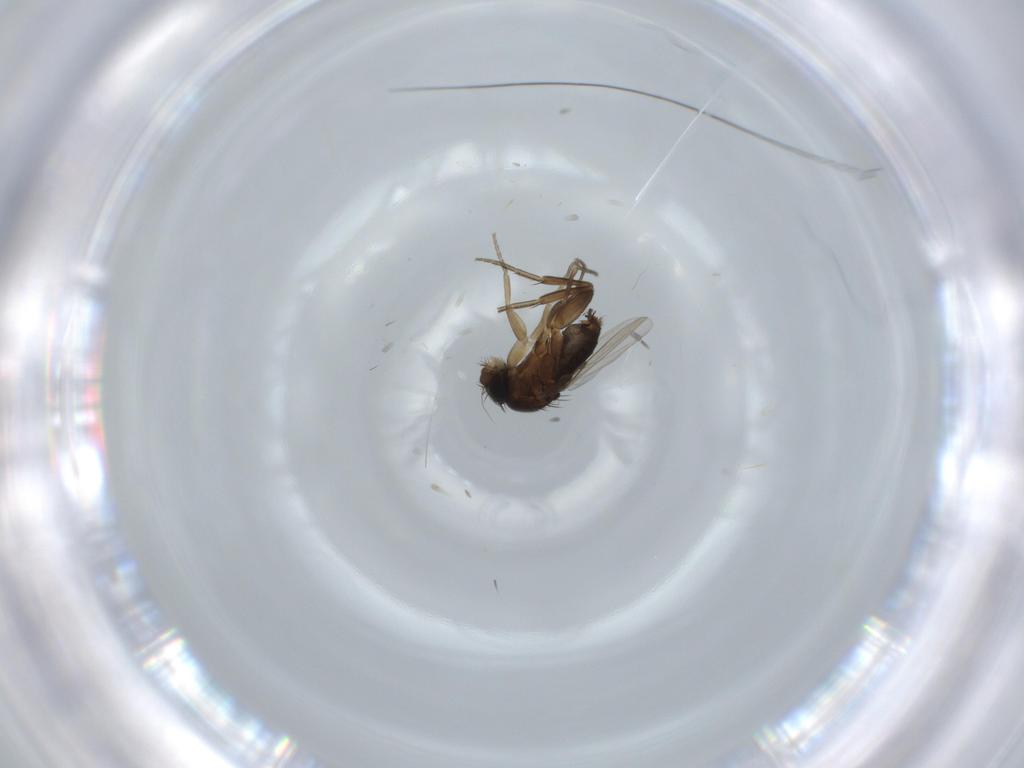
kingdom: Animalia
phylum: Arthropoda
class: Insecta
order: Diptera
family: Phoridae
